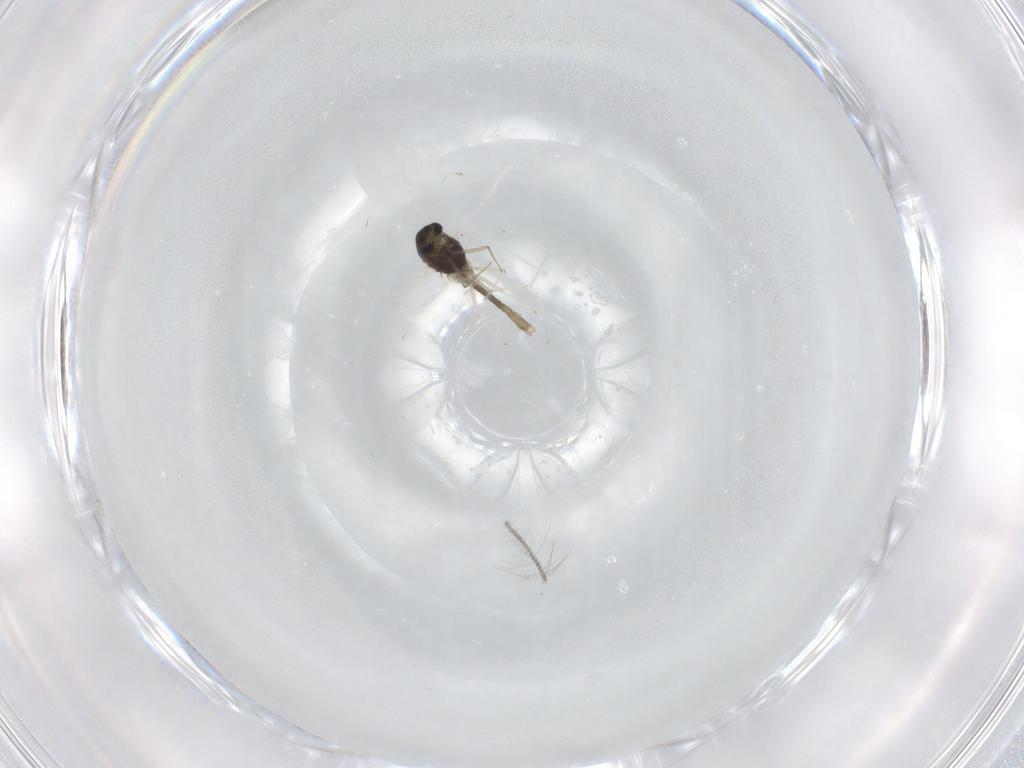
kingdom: Animalia
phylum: Arthropoda
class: Insecta
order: Diptera
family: Chironomidae
